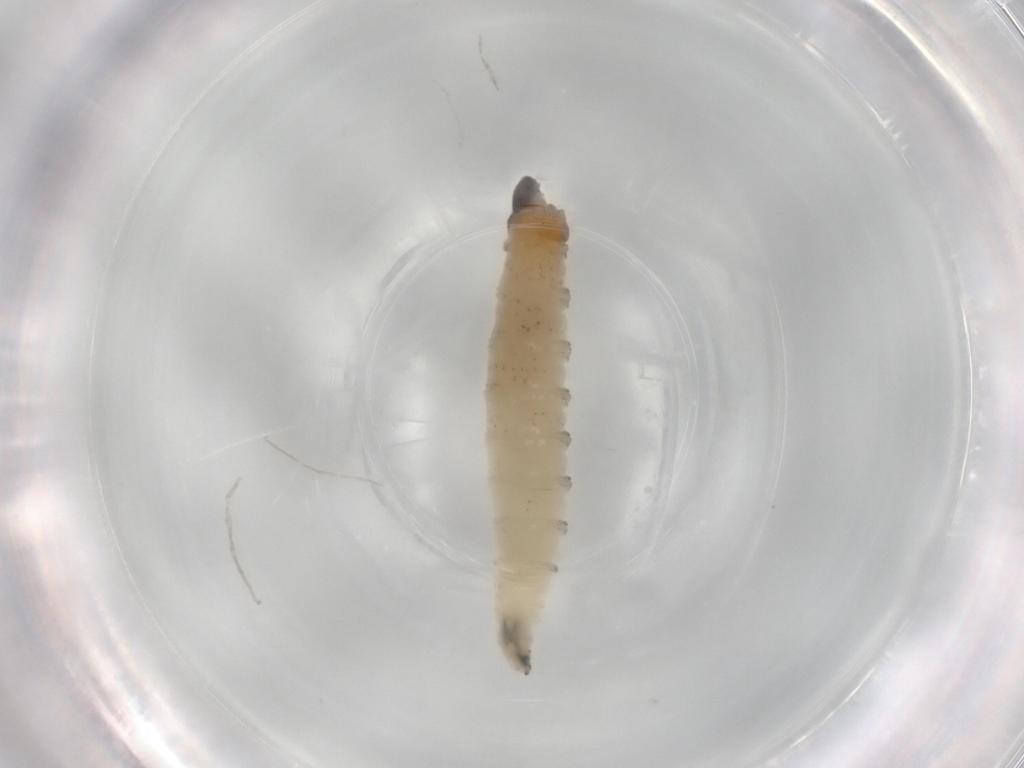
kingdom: Animalia
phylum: Arthropoda
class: Insecta
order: Diptera
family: Drosophilidae
